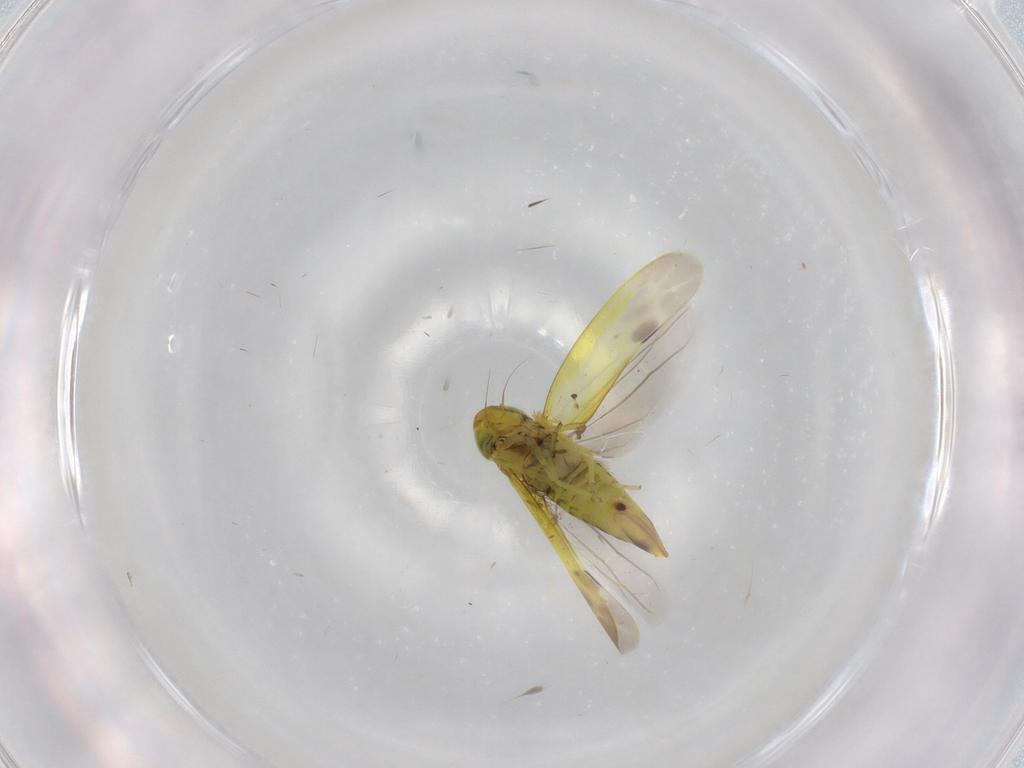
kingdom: Animalia
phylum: Arthropoda
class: Insecta
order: Hemiptera
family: Cicadellidae
